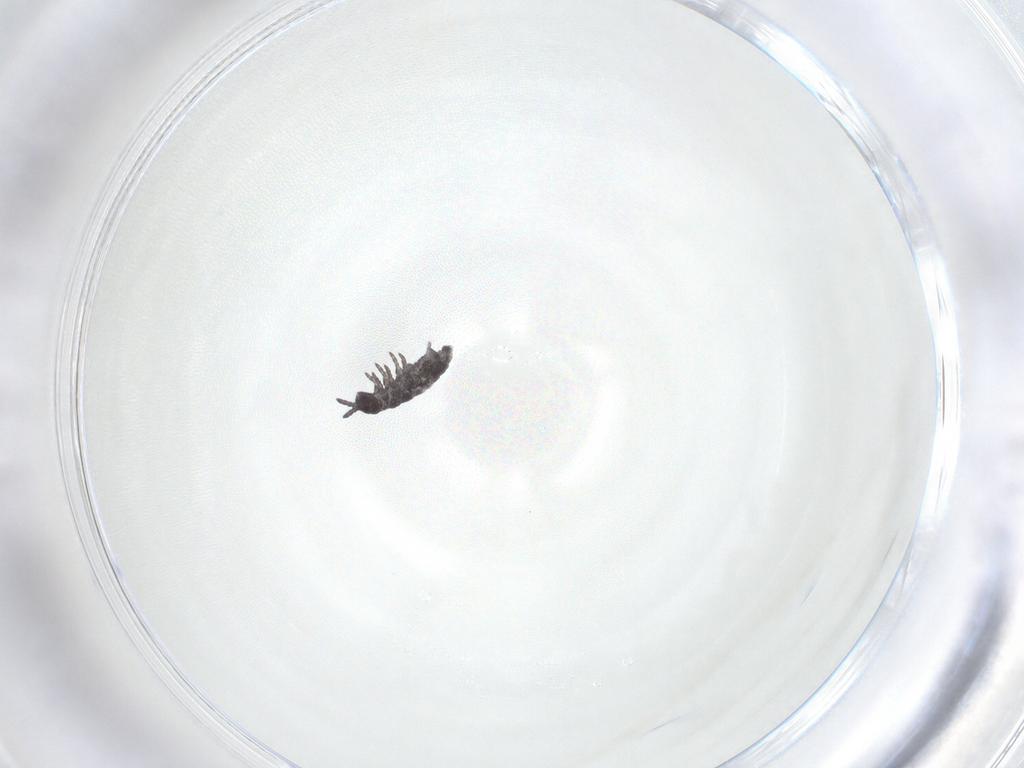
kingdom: Animalia
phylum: Arthropoda
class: Collembola
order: Poduromorpha
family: Hypogastruridae
